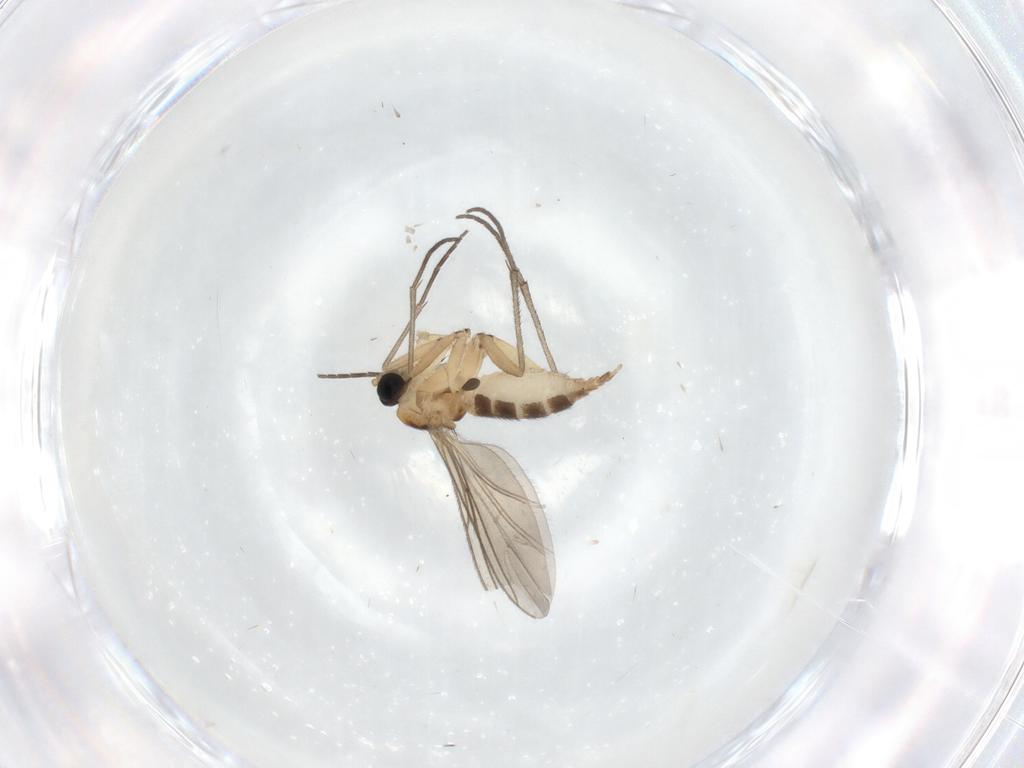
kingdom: Animalia
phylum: Arthropoda
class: Insecta
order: Diptera
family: Sciaridae
